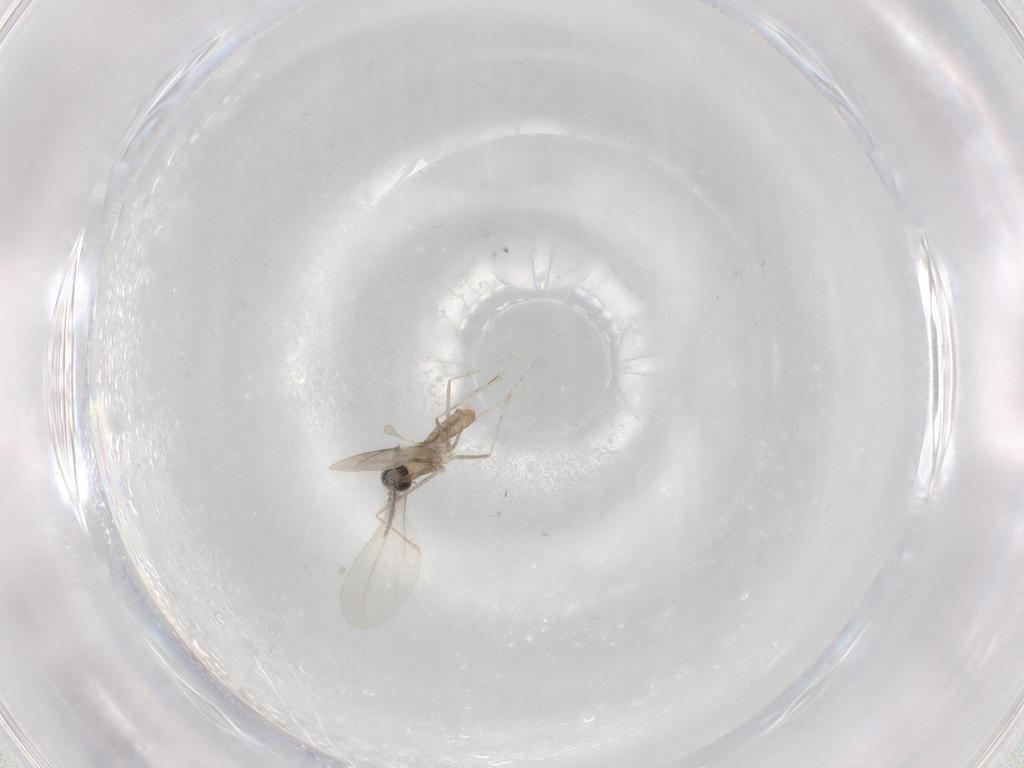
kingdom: Animalia
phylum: Arthropoda
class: Insecta
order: Diptera
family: Cecidomyiidae
